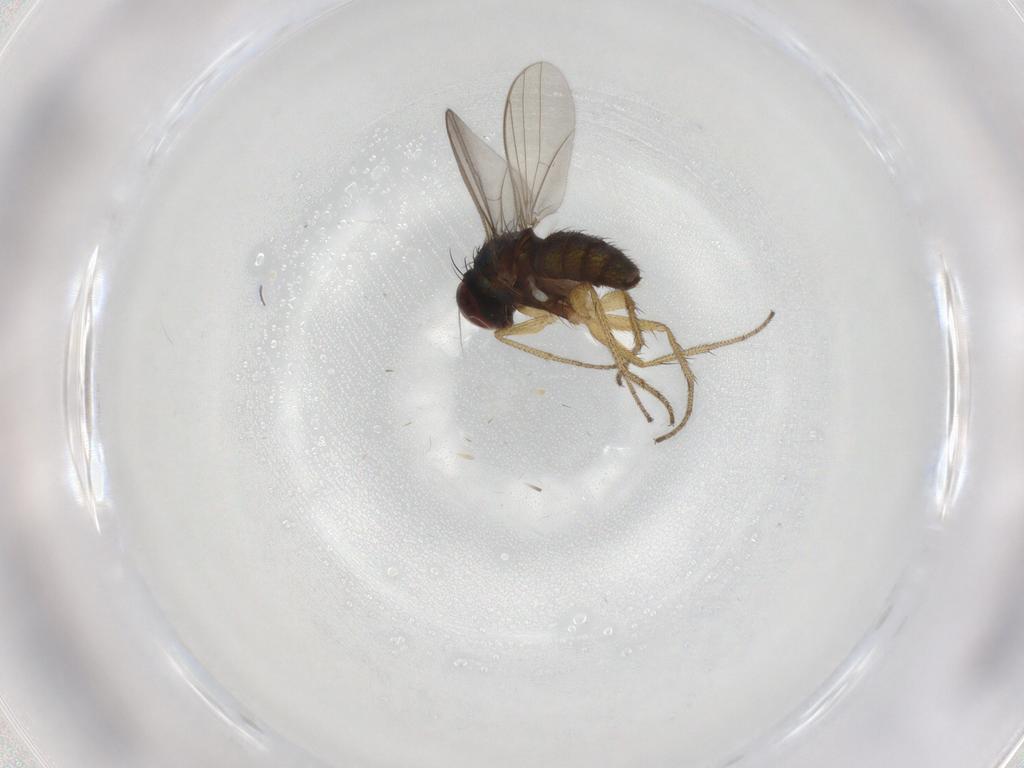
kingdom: Animalia
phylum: Arthropoda
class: Insecta
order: Diptera
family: Dolichopodidae
